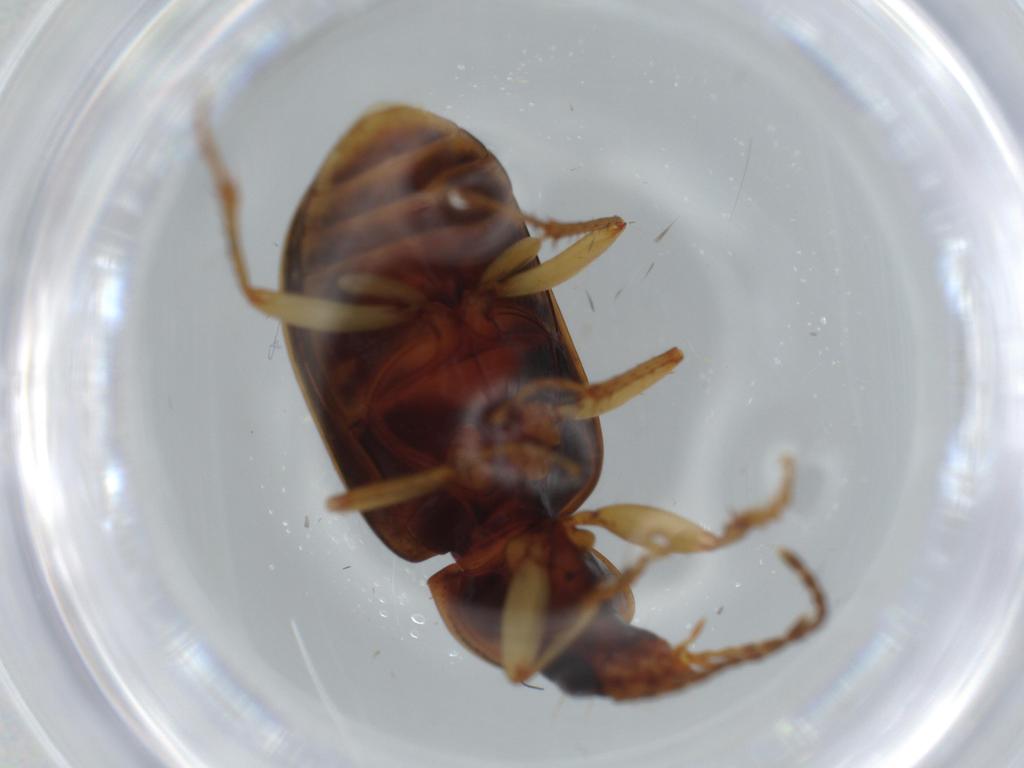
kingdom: Animalia
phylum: Arthropoda
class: Insecta
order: Coleoptera
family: Carabidae
